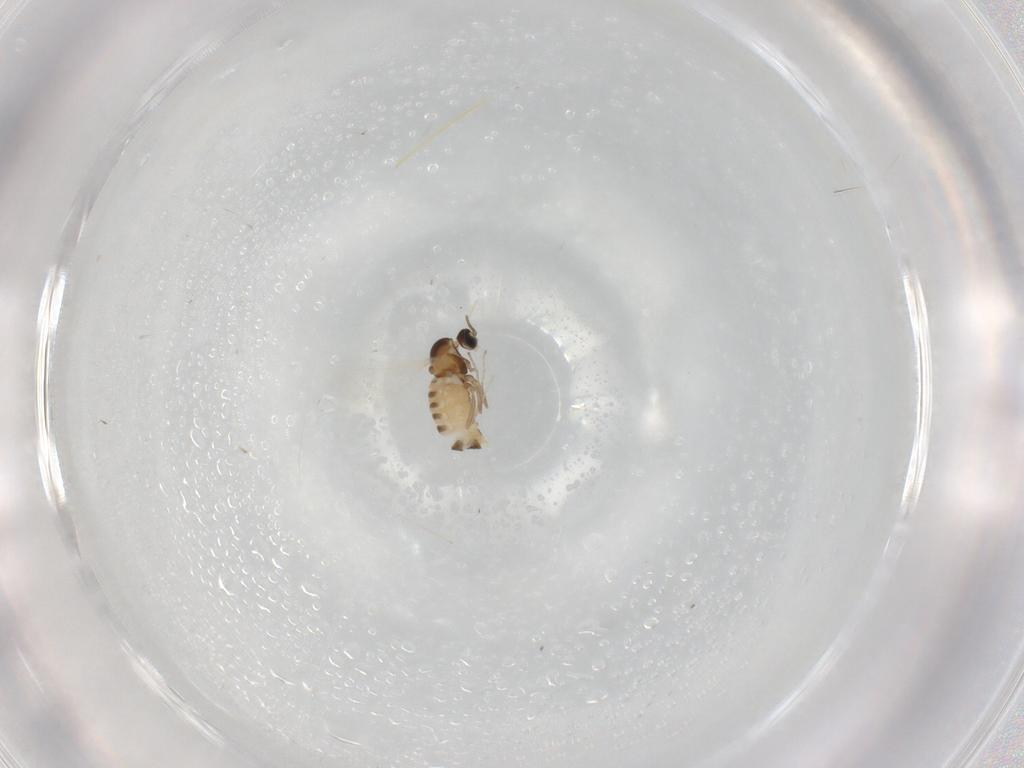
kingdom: Animalia
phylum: Arthropoda
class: Insecta
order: Diptera
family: Cecidomyiidae
